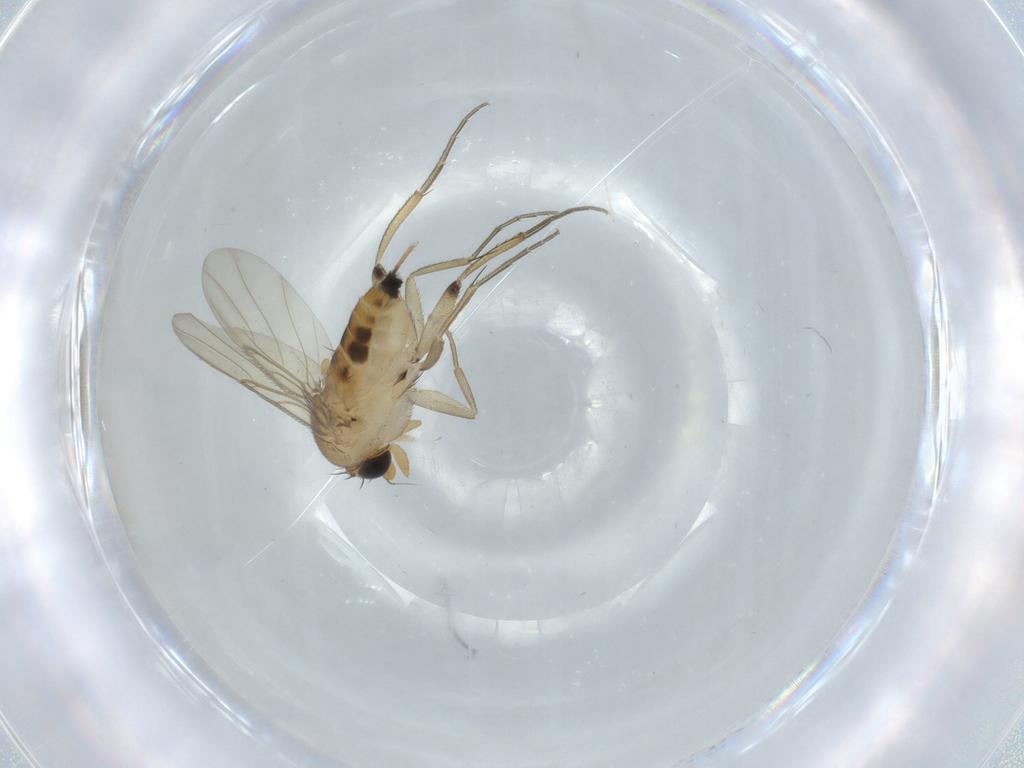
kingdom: Animalia
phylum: Arthropoda
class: Insecta
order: Diptera
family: Phoridae
